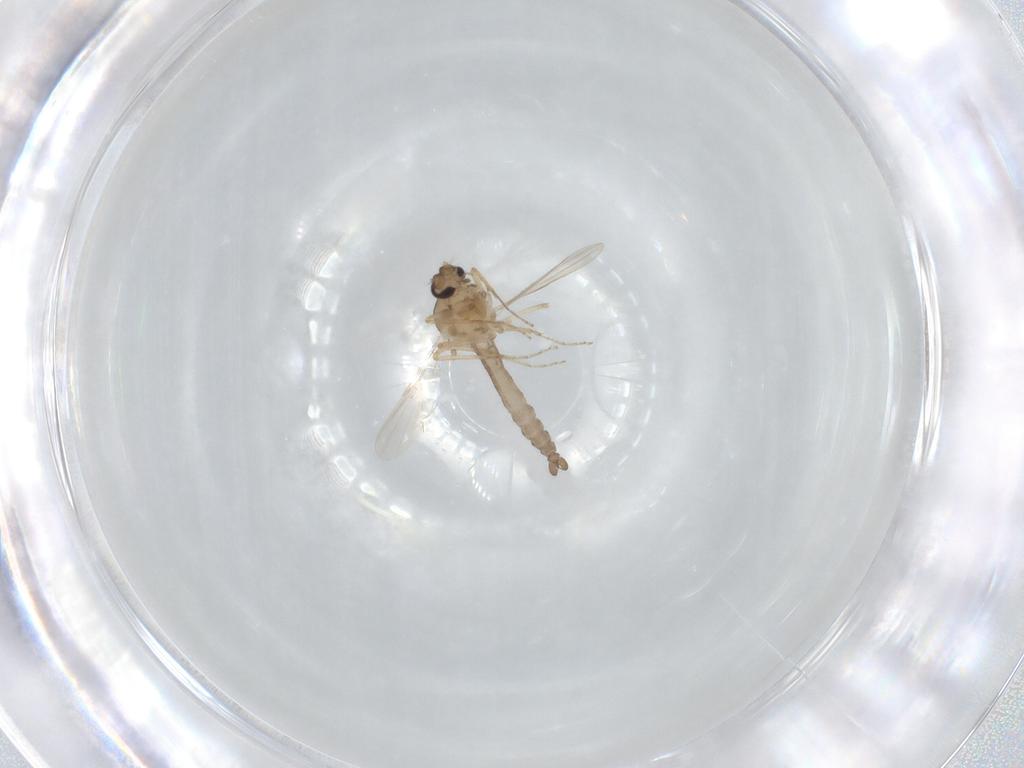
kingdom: Animalia
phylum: Arthropoda
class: Insecta
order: Diptera
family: Ceratopogonidae
